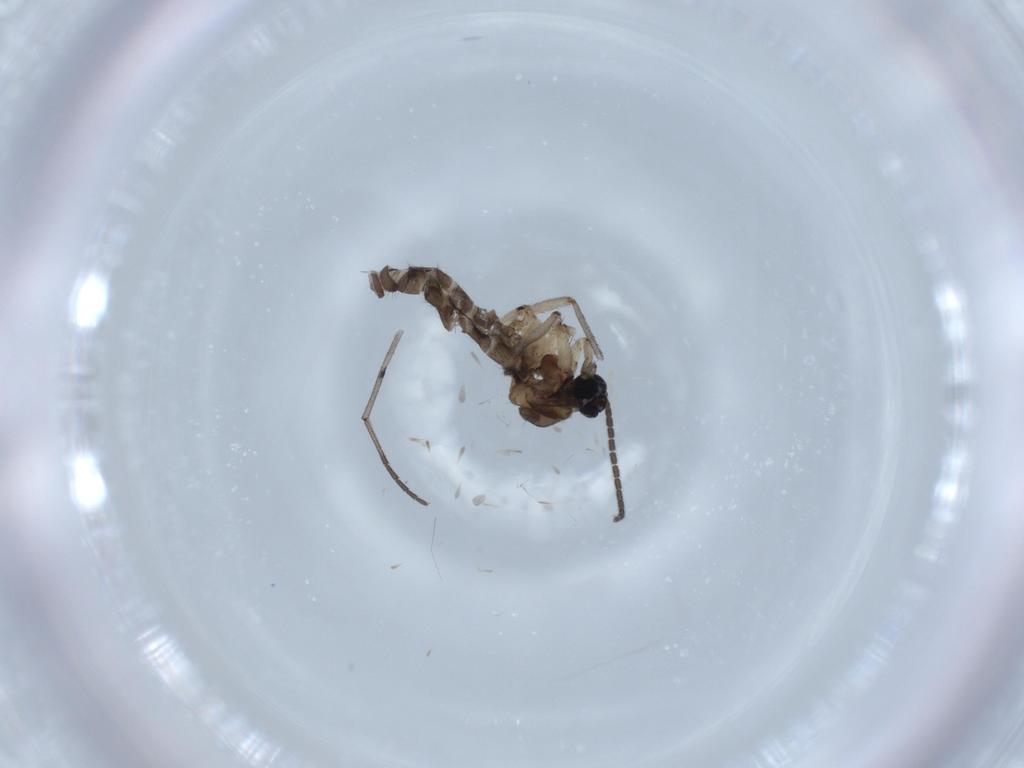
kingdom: Animalia
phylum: Arthropoda
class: Insecta
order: Diptera
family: Sciaridae
